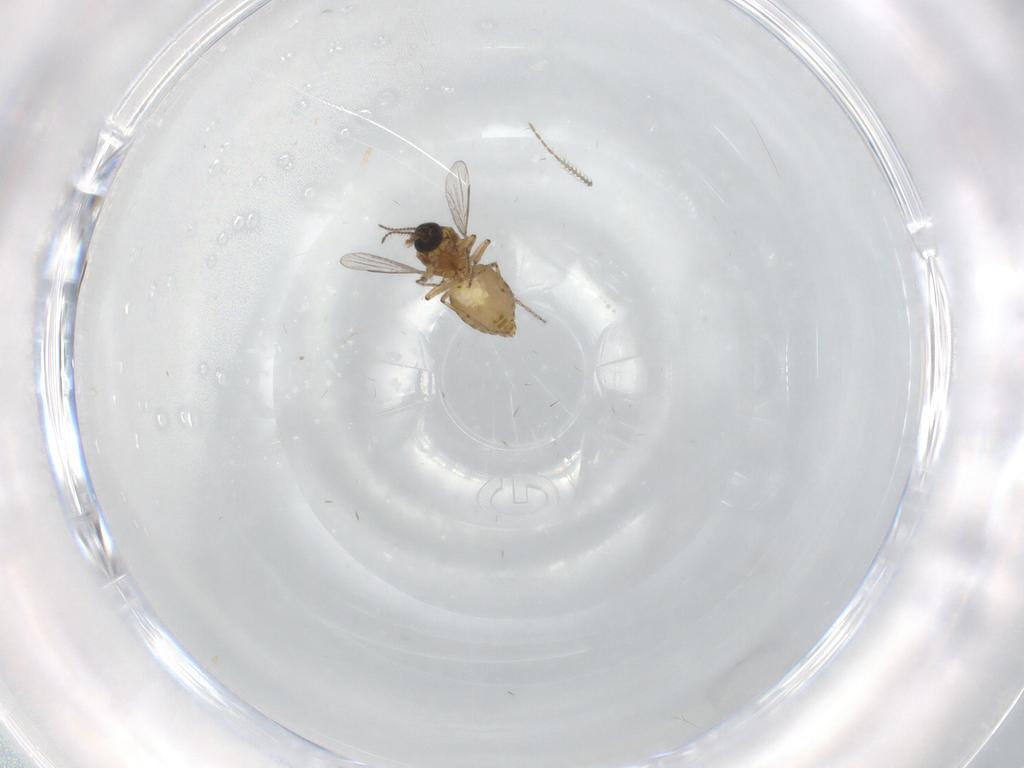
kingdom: Animalia
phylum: Arthropoda
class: Insecta
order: Diptera
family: Ceratopogonidae
